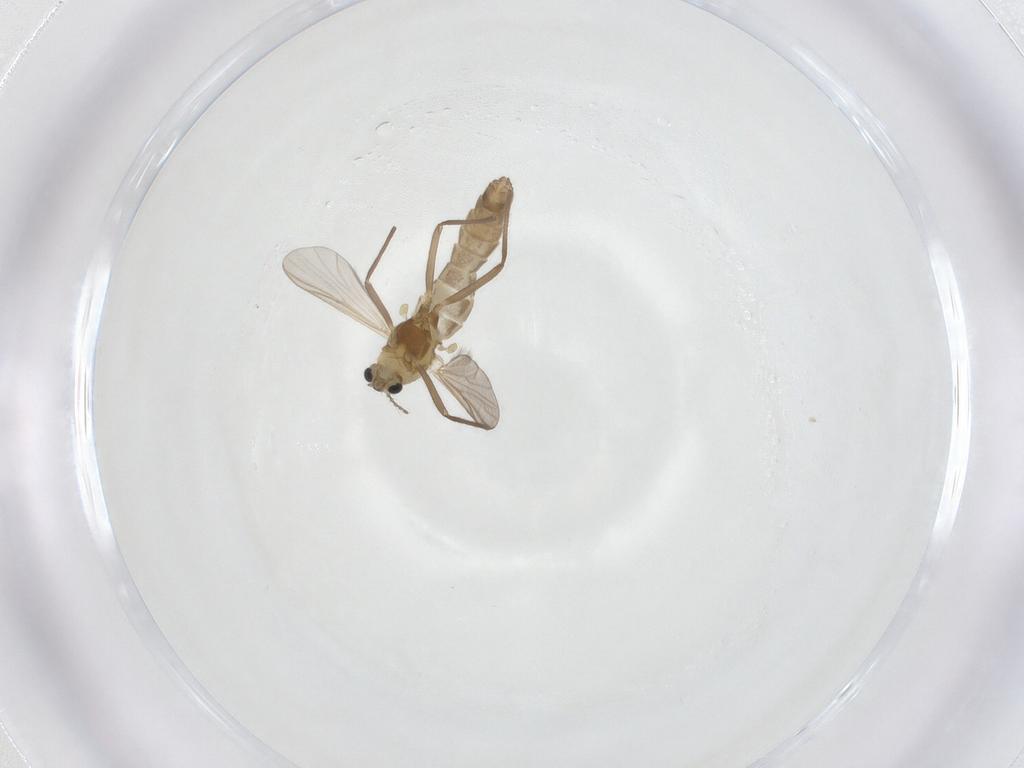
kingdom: Animalia
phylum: Arthropoda
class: Insecta
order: Diptera
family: Chironomidae
